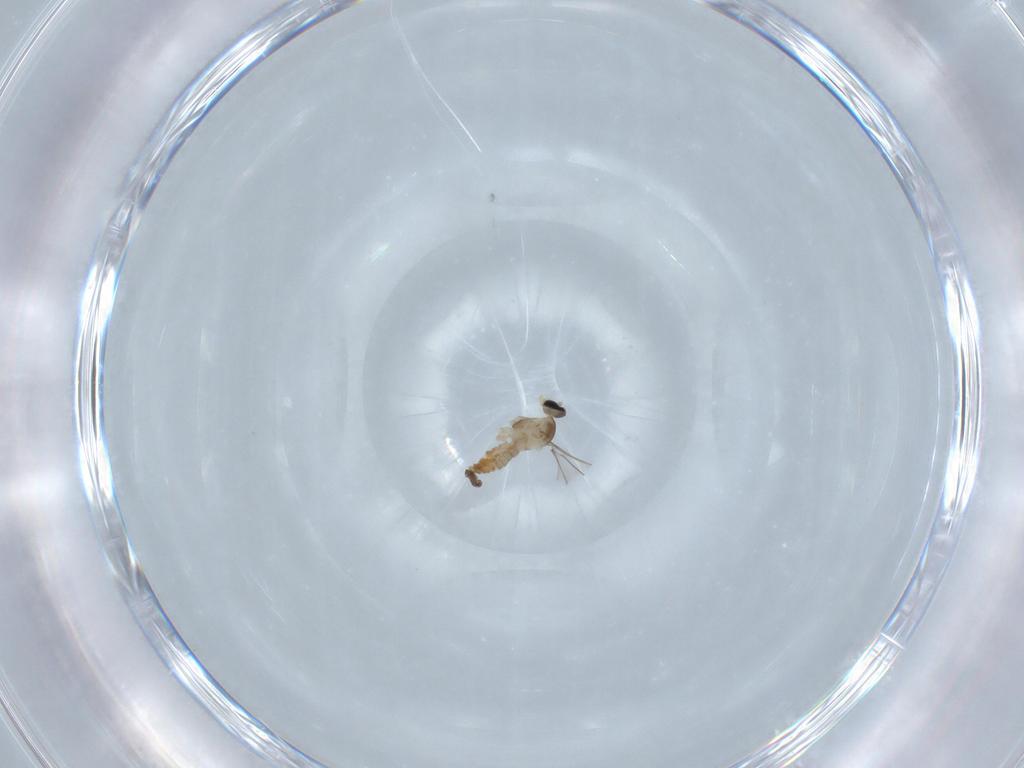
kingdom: Animalia
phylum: Arthropoda
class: Insecta
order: Diptera
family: Cecidomyiidae
